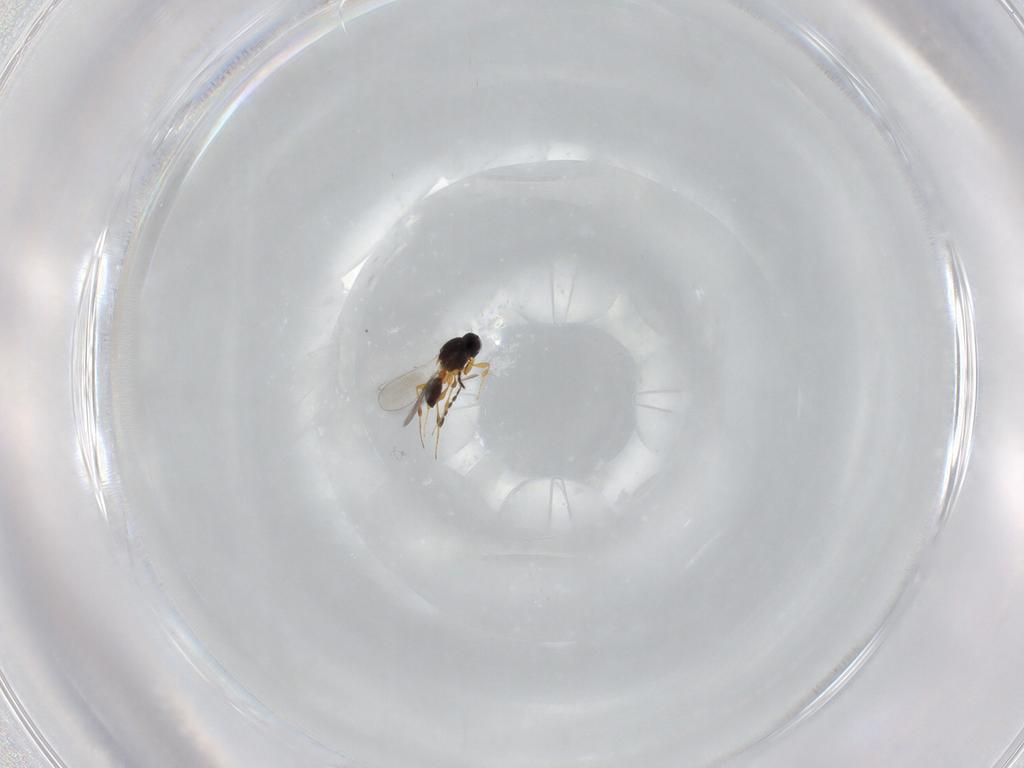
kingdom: Animalia
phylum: Arthropoda
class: Insecta
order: Hymenoptera
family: Platygastridae
